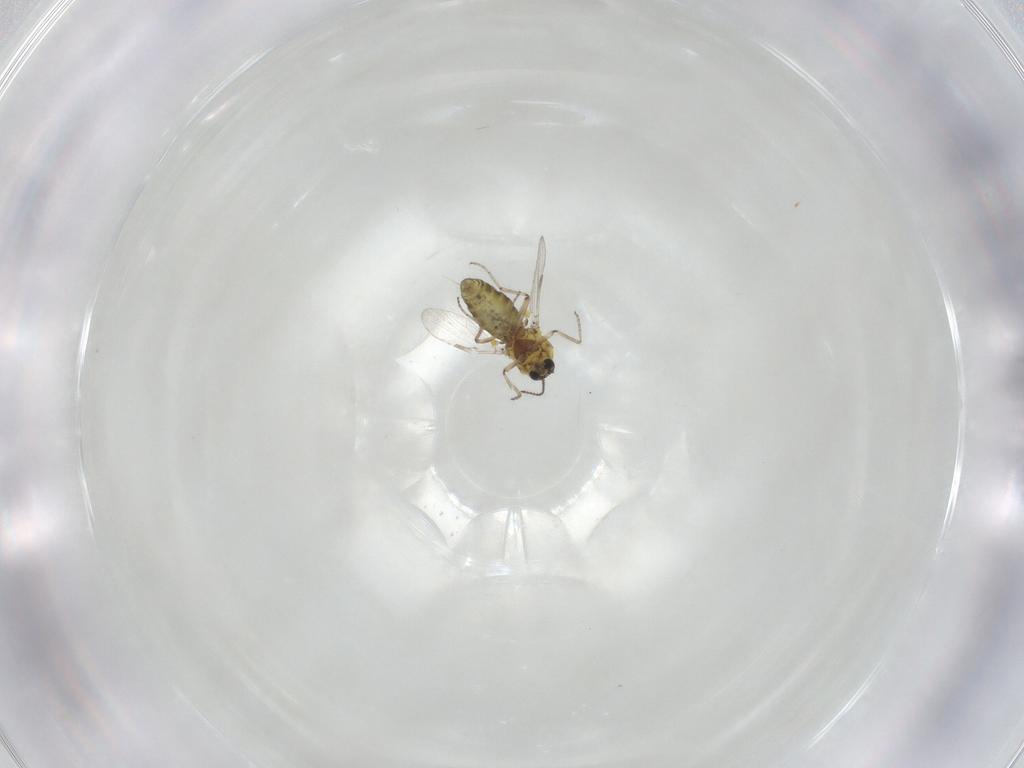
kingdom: Animalia
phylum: Arthropoda
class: Insecta
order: Diptera
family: Ceratopogonidae
